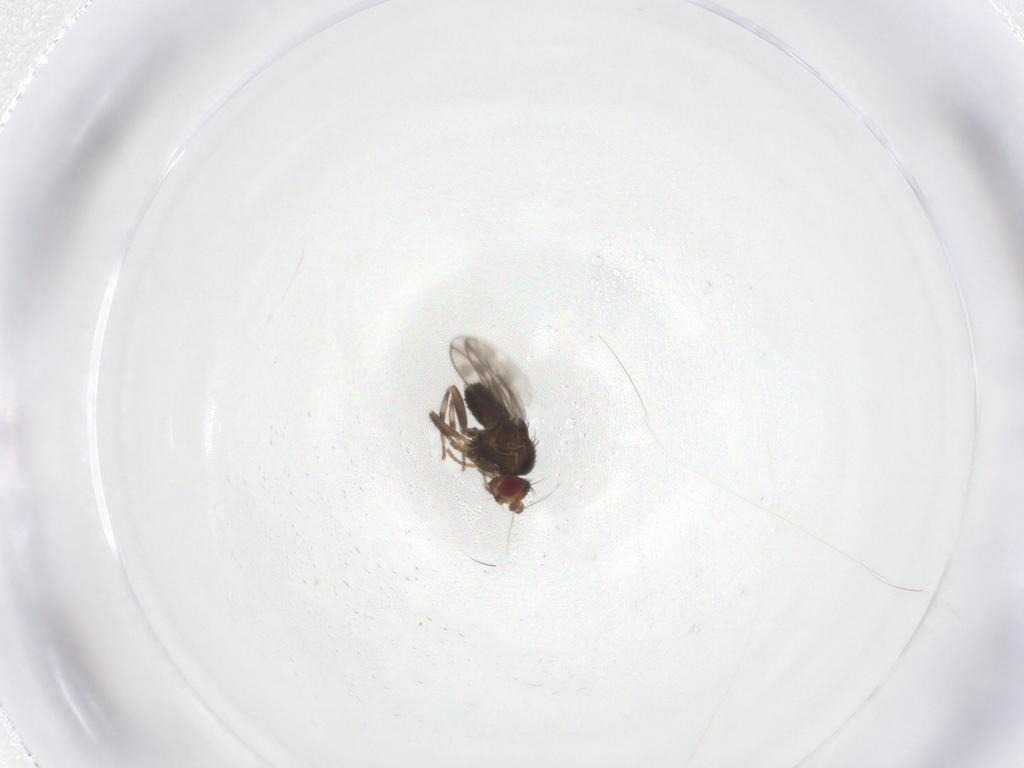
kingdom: Animalia
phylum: Arthropoda
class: Insecta
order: Diptera
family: Sphaeroceridae
